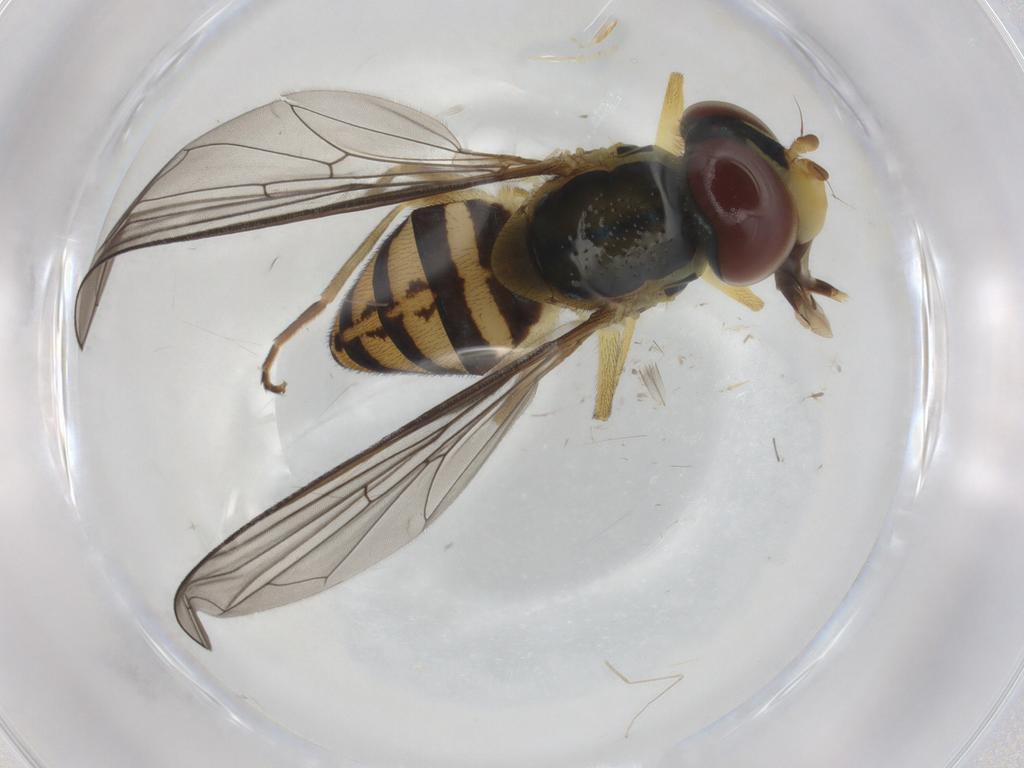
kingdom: Animalia
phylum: Arthropoda
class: Insecta
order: Diptera
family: Syrphidae
